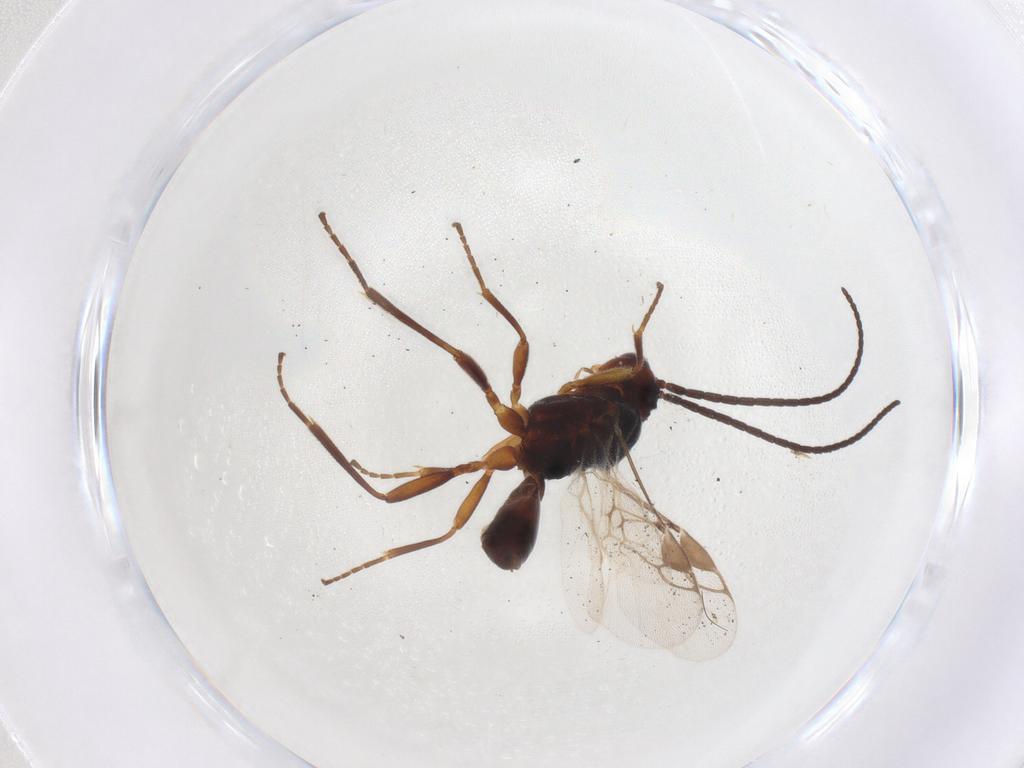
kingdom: Animalia
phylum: Arthropoda
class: Insecta
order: Hymenoptera
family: Braconidae
